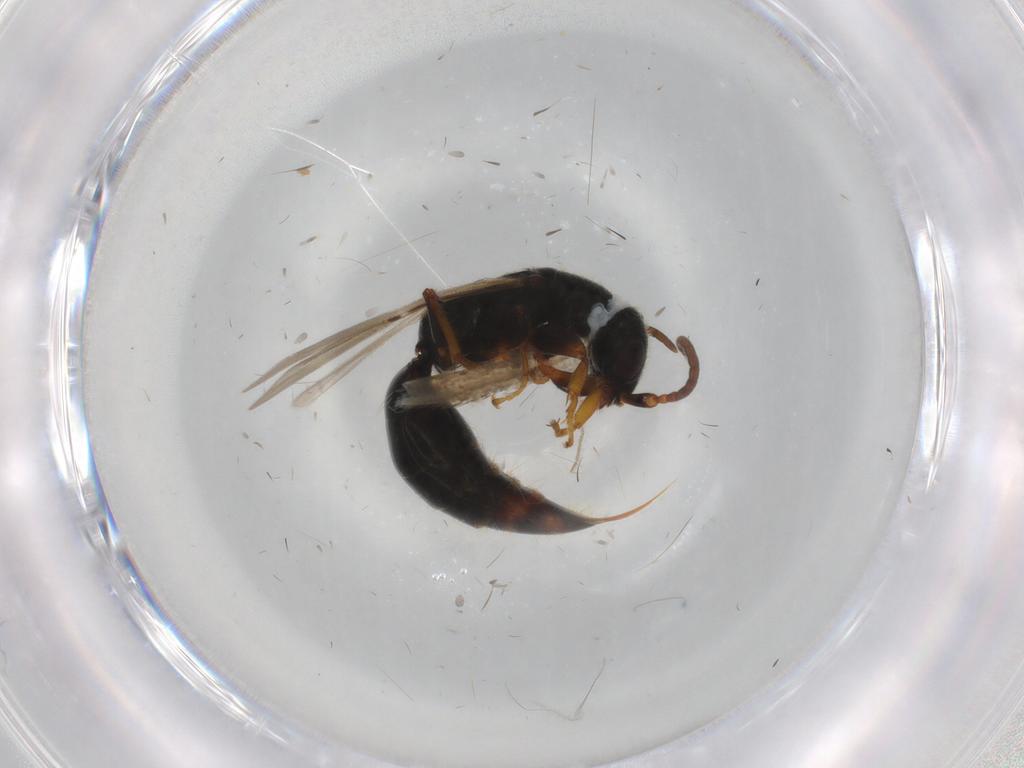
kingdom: Animalia
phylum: Arthropoda
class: Insecta
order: Hymenoptera
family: Bethylidae
